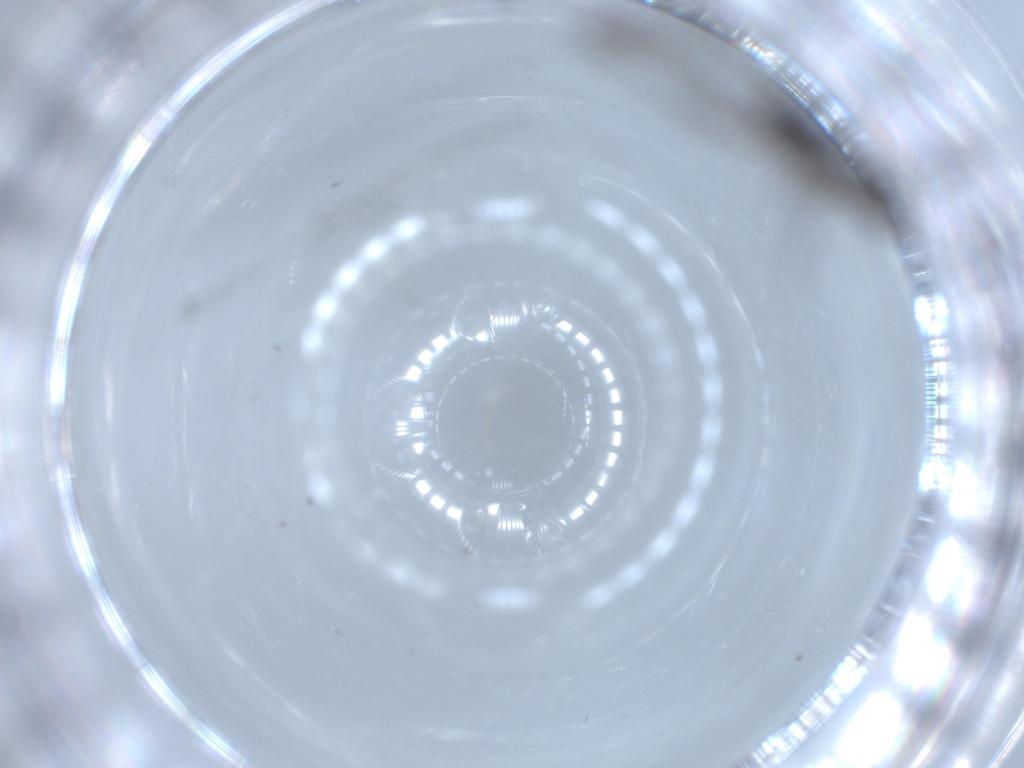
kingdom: Animalia
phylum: Arthropoda
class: Insecta
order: Diptera
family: Sciaridae
